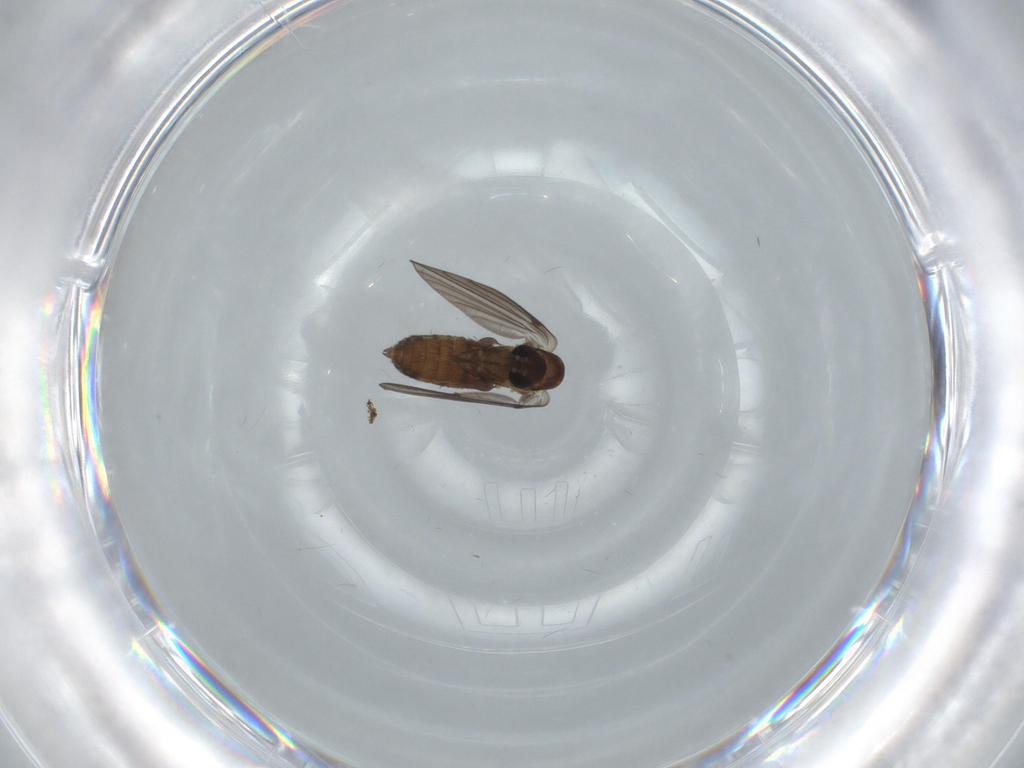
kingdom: Animalia
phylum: Arthropoda
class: Insecta
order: Diptera
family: Psychodidae
